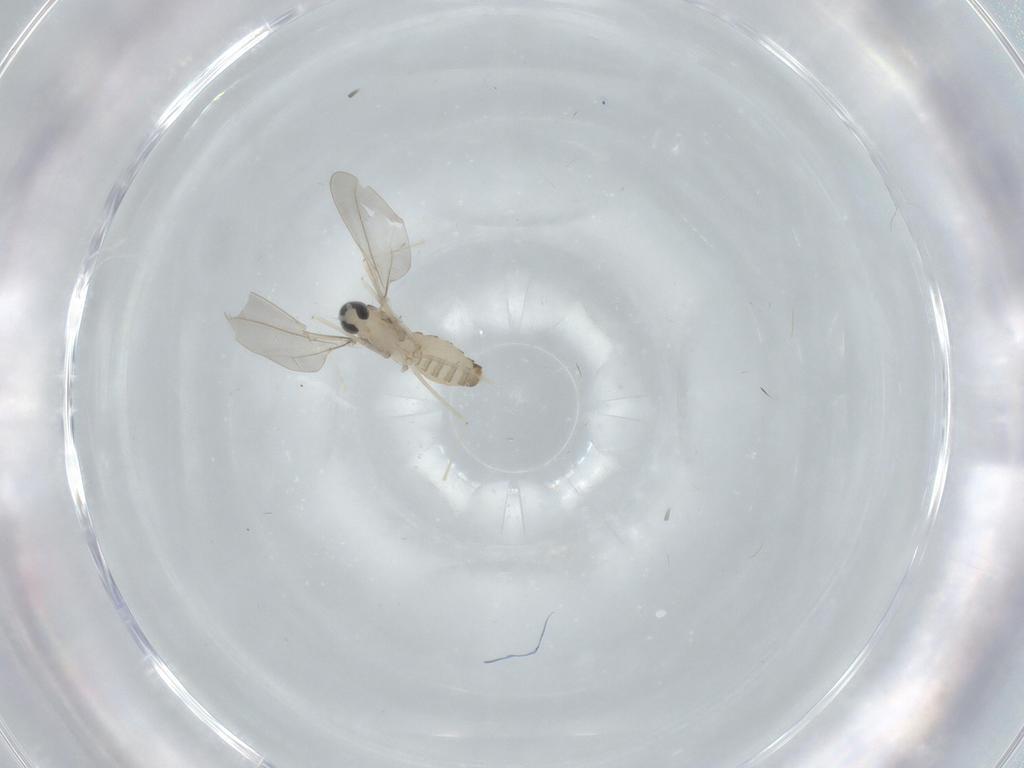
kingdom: Animalia
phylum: Arthropoda
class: Insecta
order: Diptera
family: Cecidomyiidae
